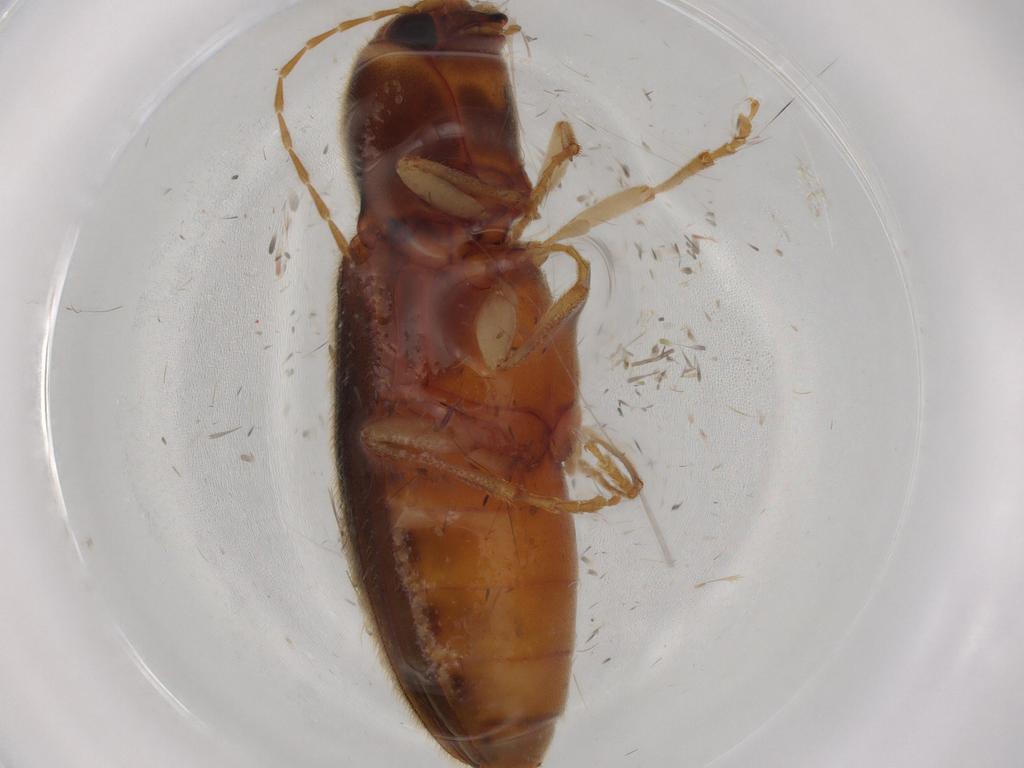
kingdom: Animalia
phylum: Arthropoda
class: Insecta
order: Coleoptera
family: Elateridae
